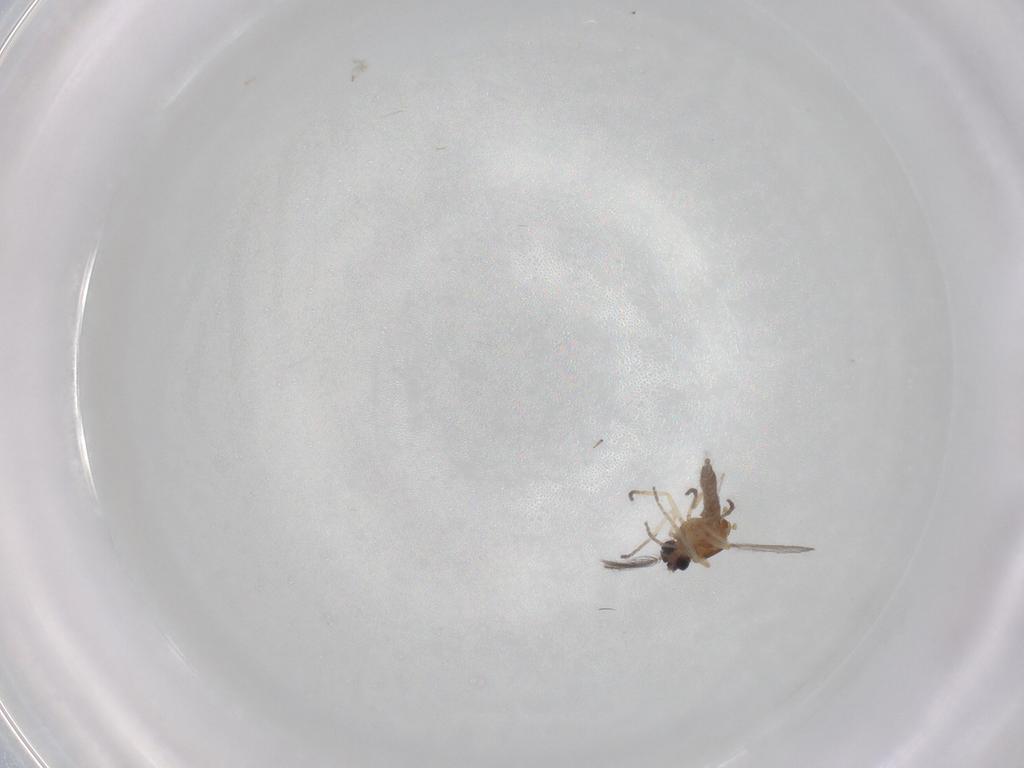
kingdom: Animalia
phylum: Arthropoda
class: Insecta
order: Diptera
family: Ceratopogonidae
